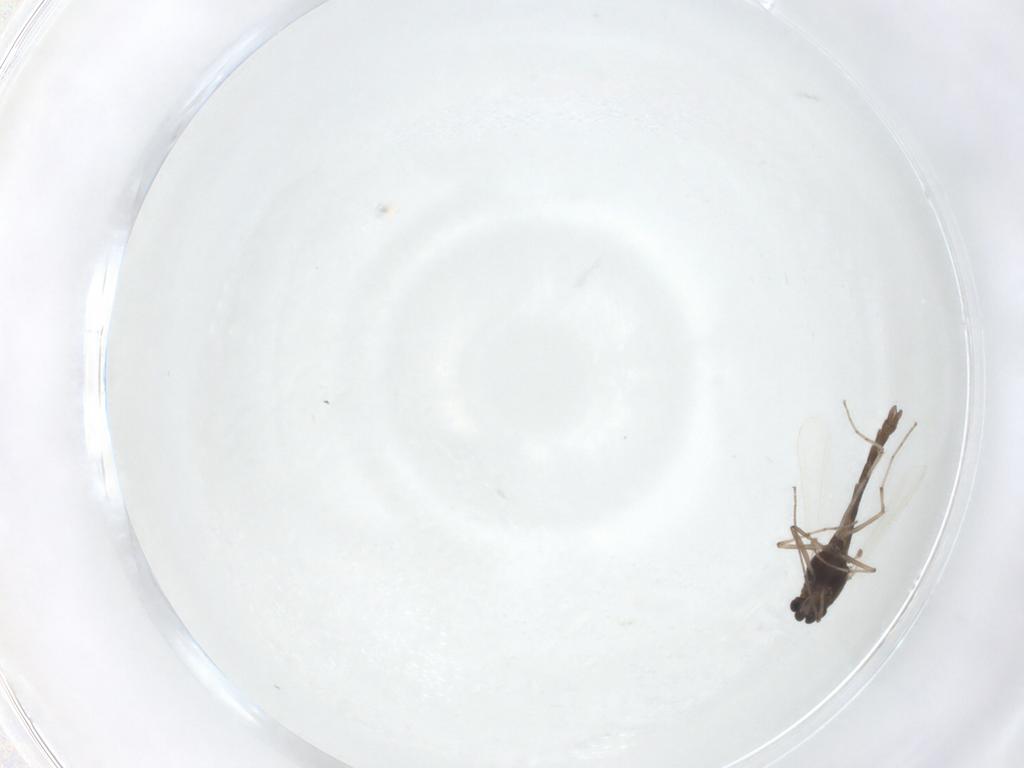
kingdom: Animalia
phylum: Arthropoda
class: Insecta
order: Diptera
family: Chironomidae
